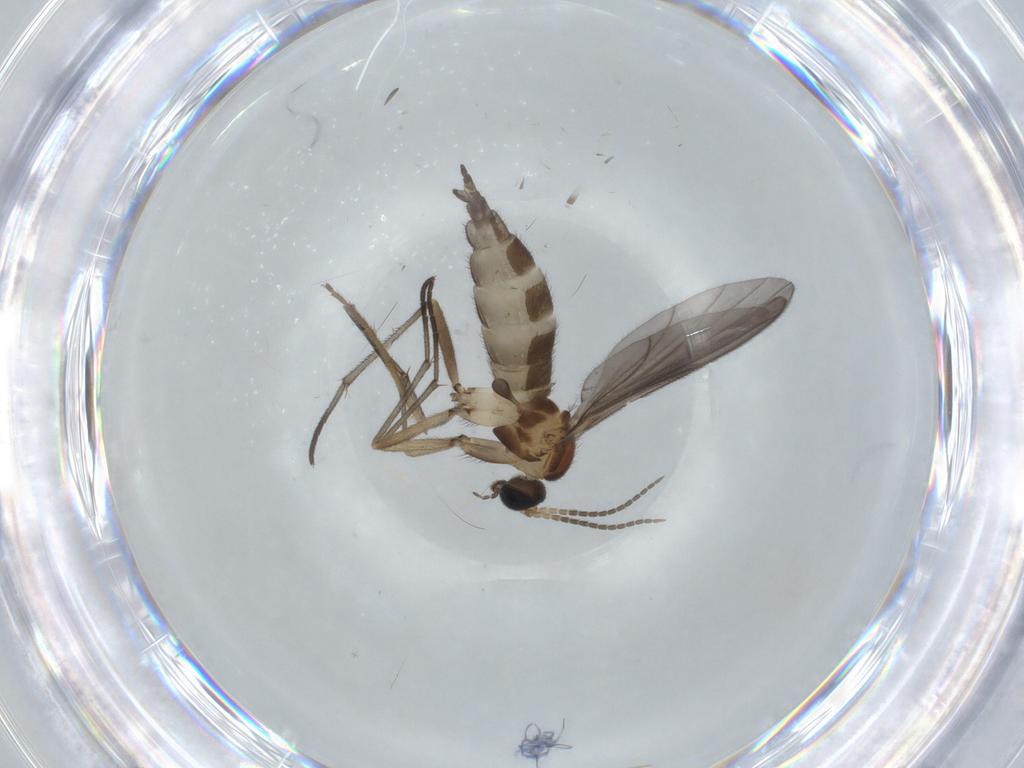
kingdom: Animalia
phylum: Arthropoda
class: Insecta
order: Diptera
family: Sciaridae
